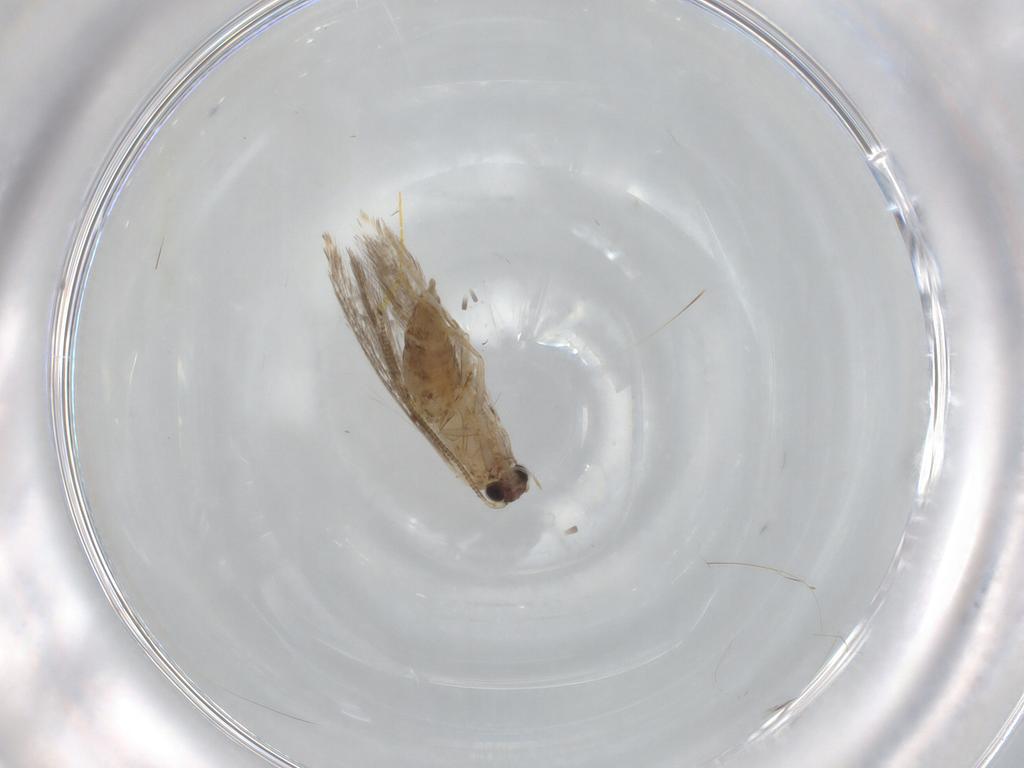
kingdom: Animalia
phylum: Arthropoda
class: Insecta
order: Lepidoptera
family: Tineidae
